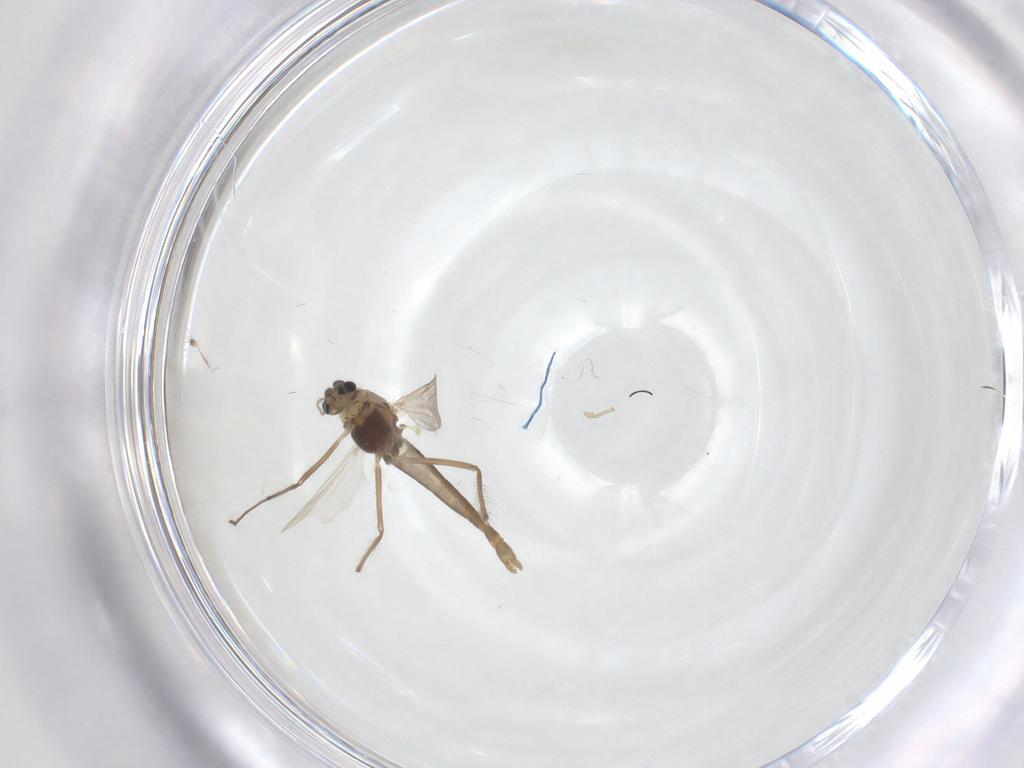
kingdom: Animalia
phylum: Arthropoda
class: Insecta
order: Diptera
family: Chironomidae
